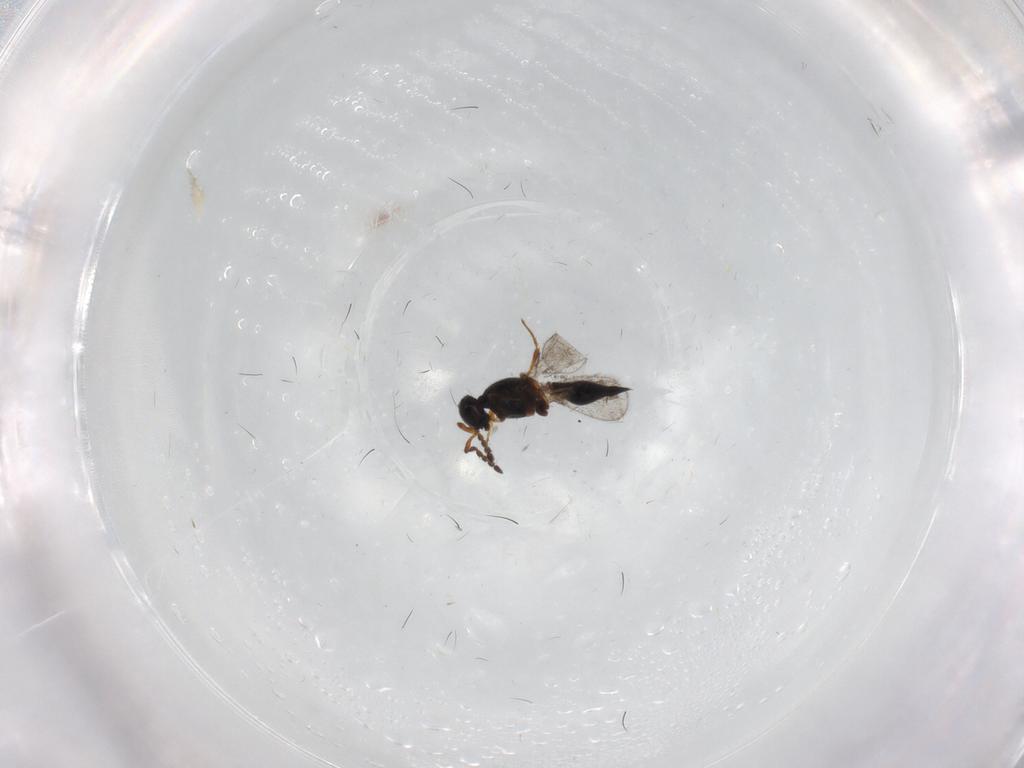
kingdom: Animalia
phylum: Arthropoda
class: Insecta
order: Hymenoptera
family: Platygastridae
